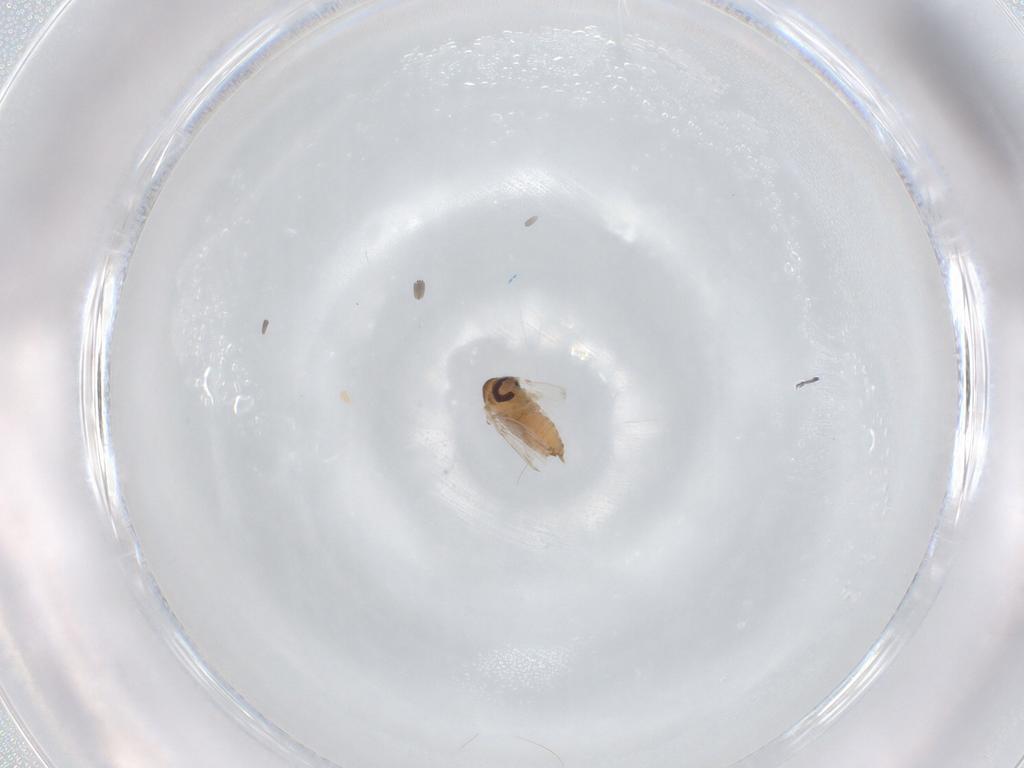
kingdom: Animalia
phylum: Arthropoda
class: Insecta
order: Diptera
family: Psychodidae
